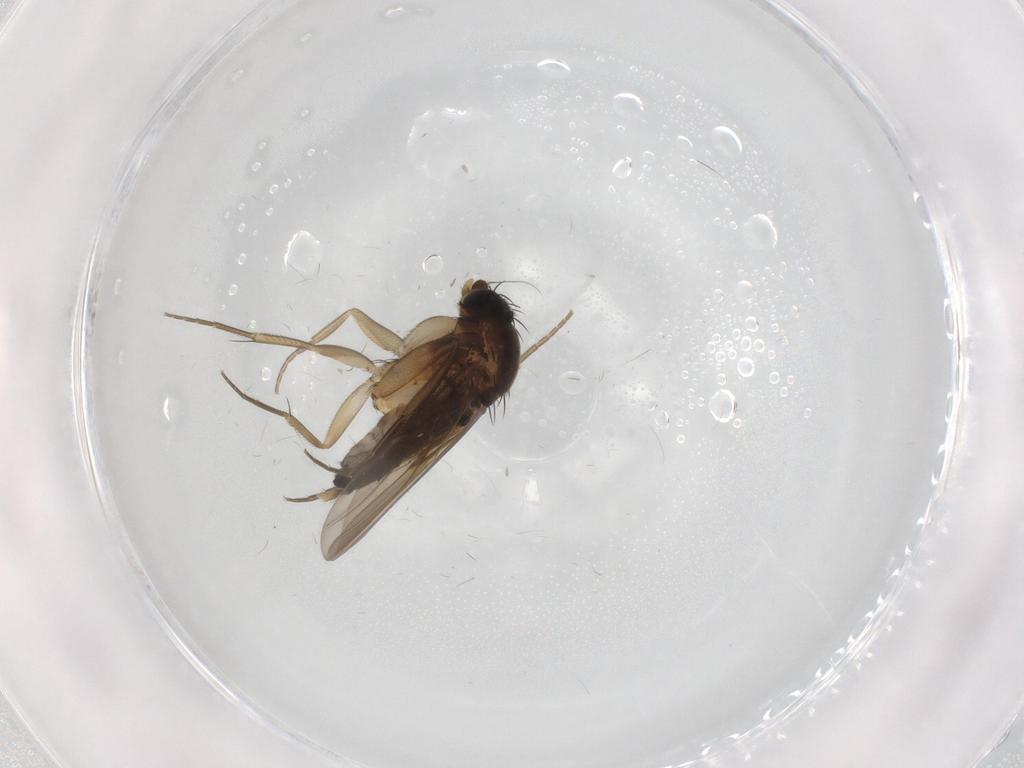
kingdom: Animalia
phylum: Arthropoda
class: Insecta
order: Diptera
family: Phoridae
